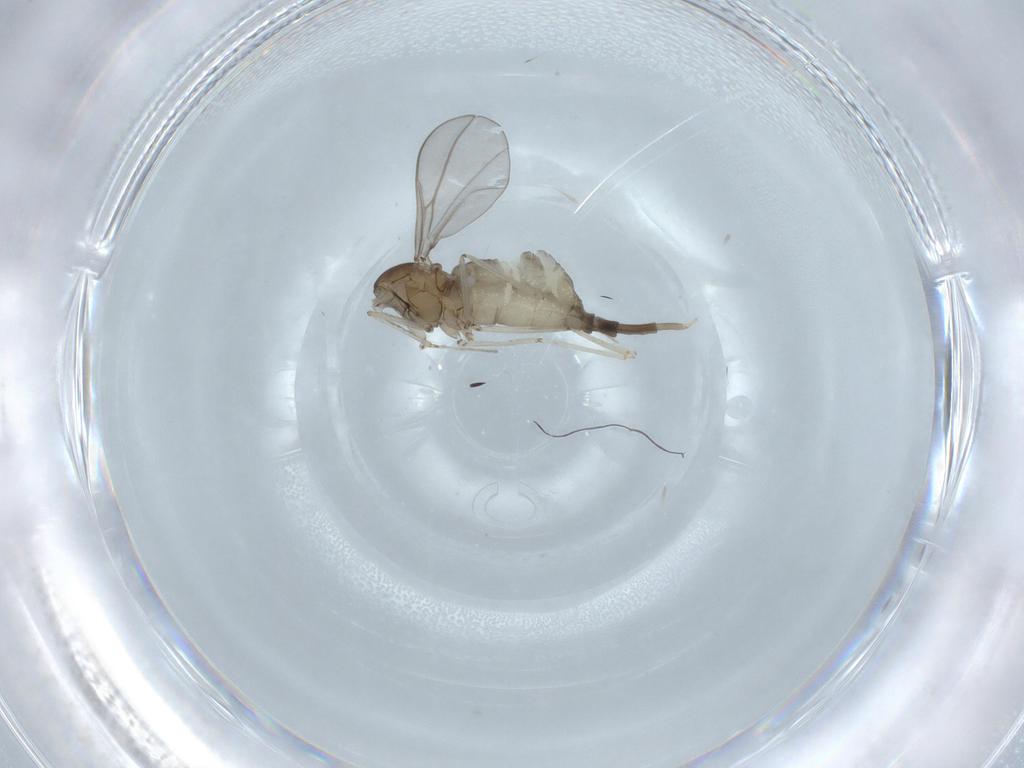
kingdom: Animalia
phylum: Arthropoda
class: Insecta
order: Diptera
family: Cecidomyiidae
